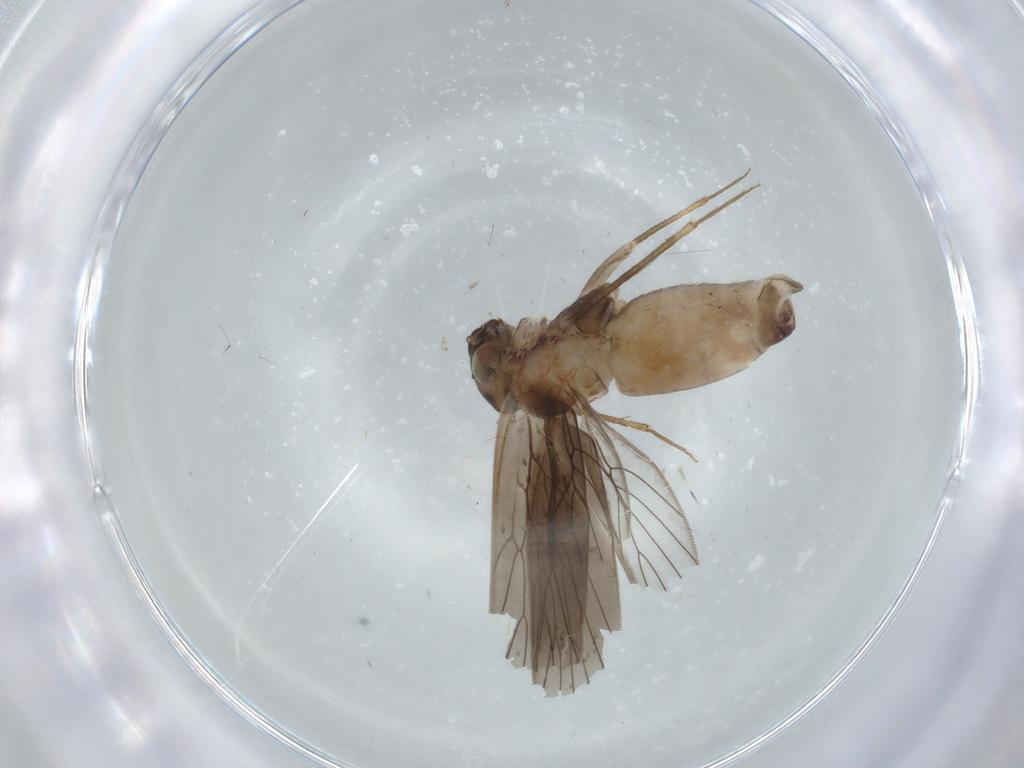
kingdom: Animalia
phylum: Arthropoda
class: Insecta
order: Psocodea
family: Lepidopsocidae
